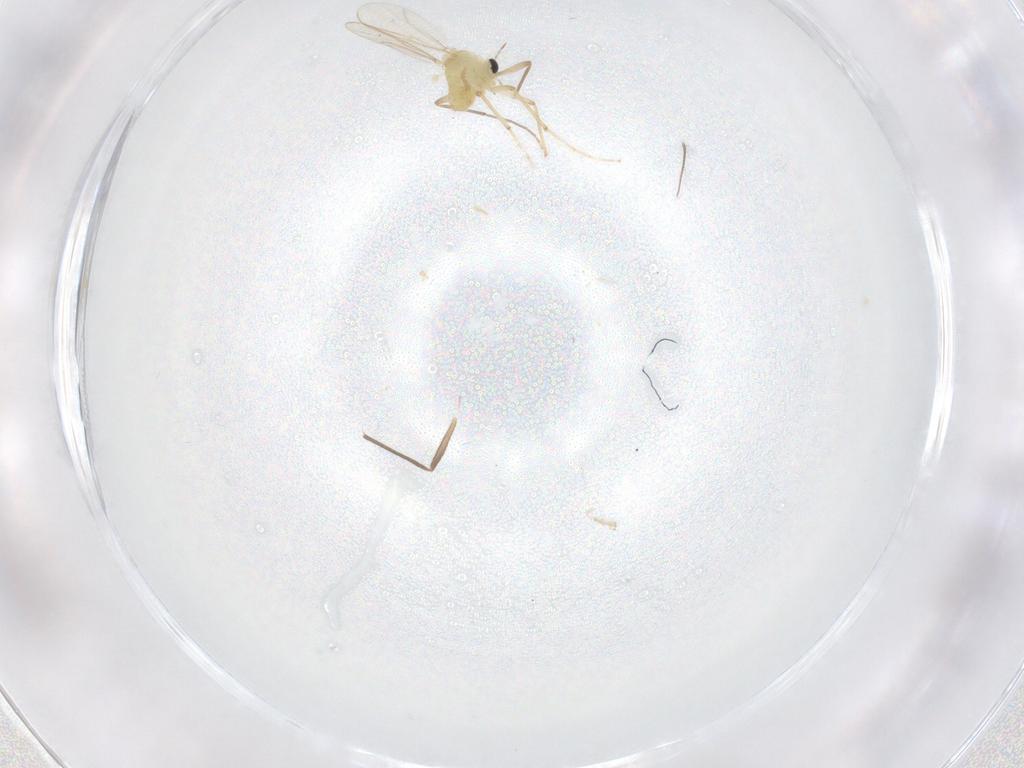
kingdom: Animalia
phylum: Arthropoda
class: Insecta
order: Diptera
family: Chironomidae
